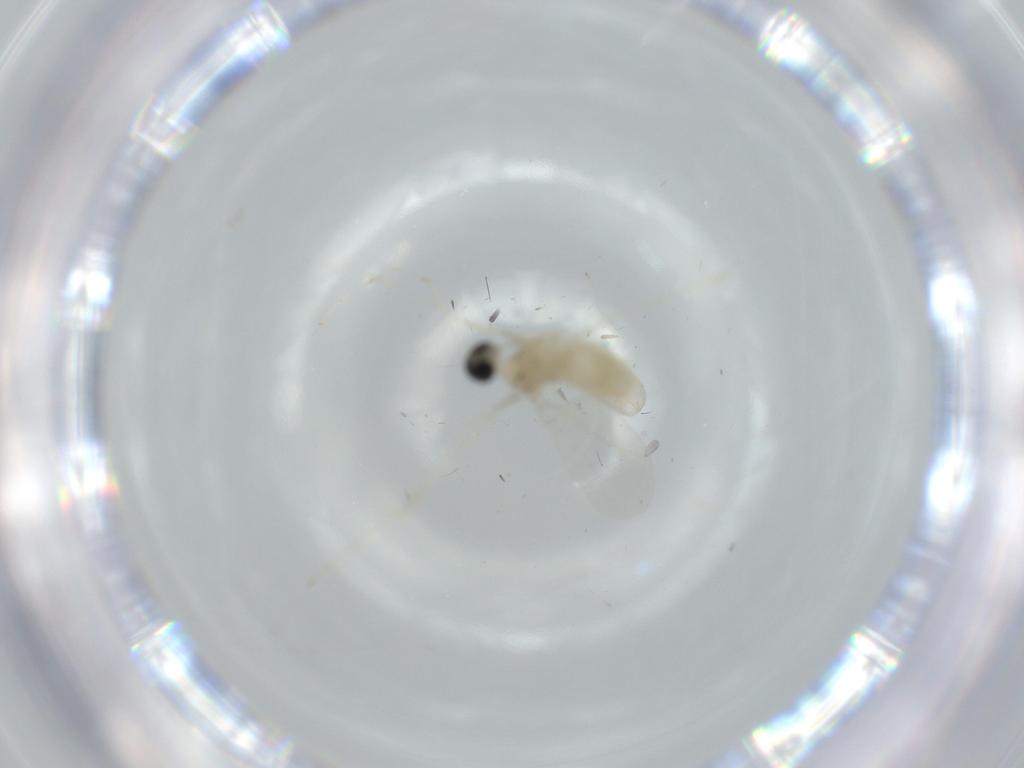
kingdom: Animalia
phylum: Arthropoda
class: Insecta
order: Diptera
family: Cecidomyiidae
